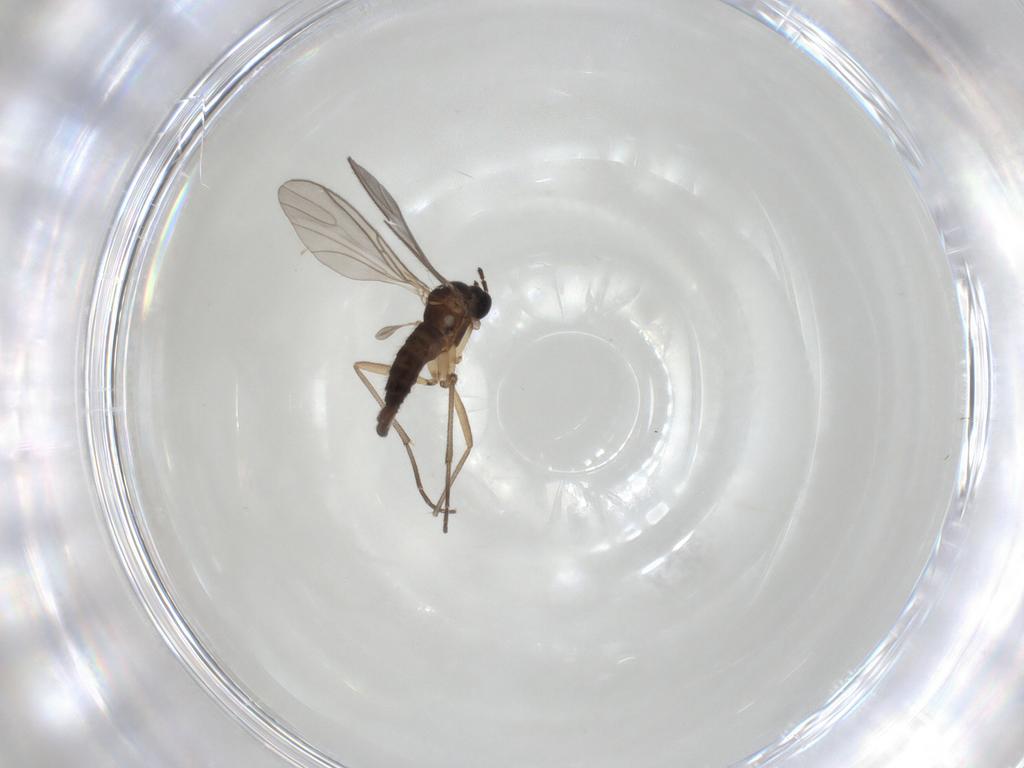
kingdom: Animalia
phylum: Arthropoda
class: Insecta
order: Diptera
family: Sciaridae
